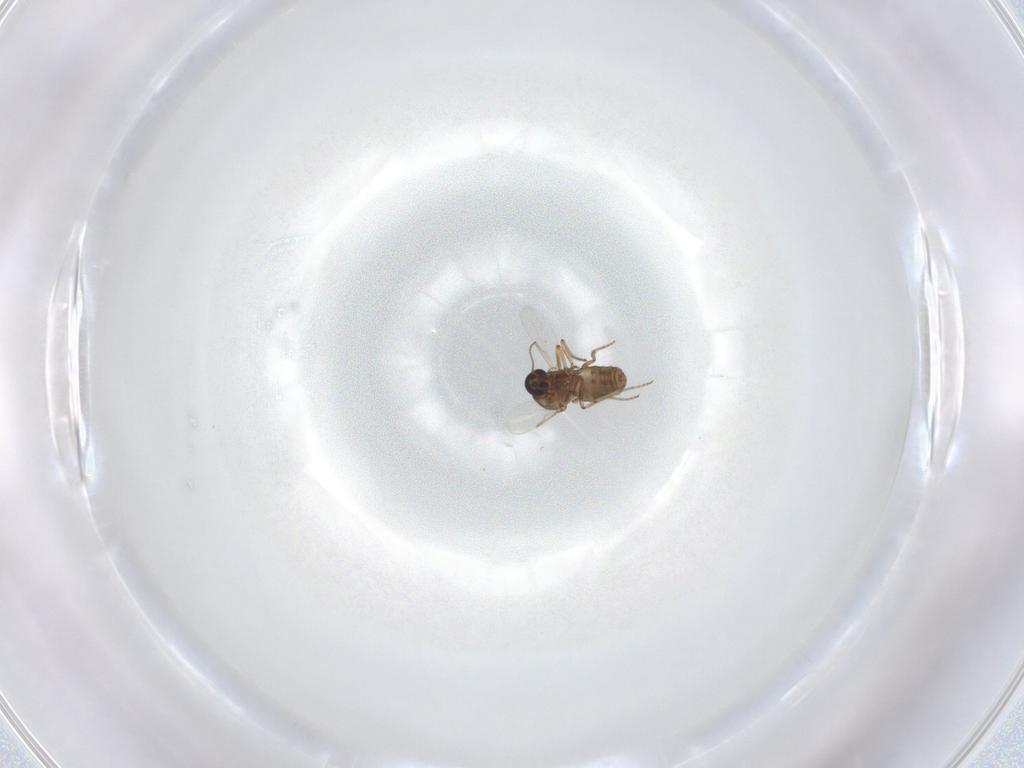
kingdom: Animalia
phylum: Arthropoda
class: Insecta
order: Diptera
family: Ceratopogonidae
